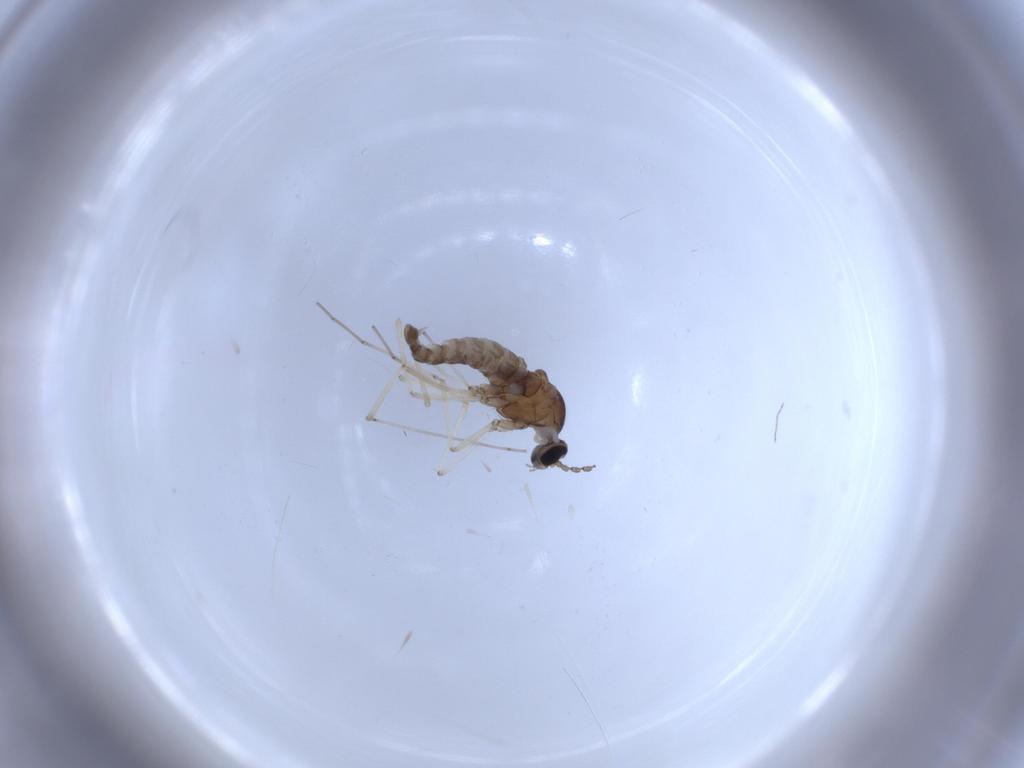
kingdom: Animalia
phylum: Arthropoda
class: Insecta
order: Diptera
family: Cecidomyiidae
